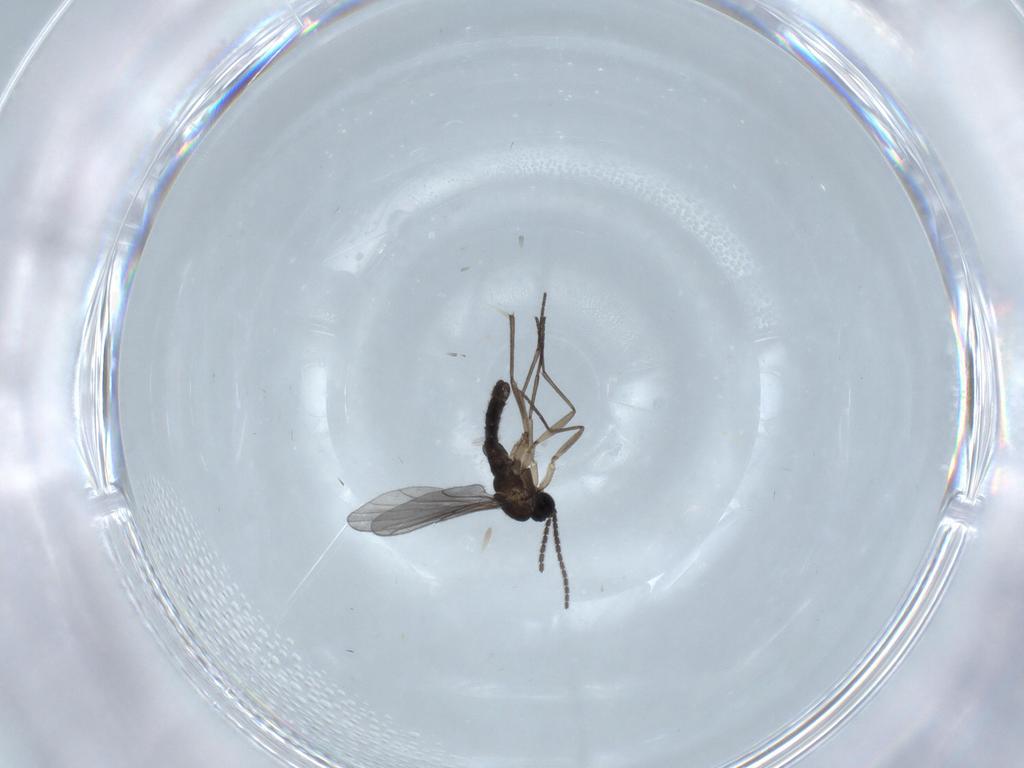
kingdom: Animalia
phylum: Arthropoda
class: Insecta
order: Diptera
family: Sciaridae
